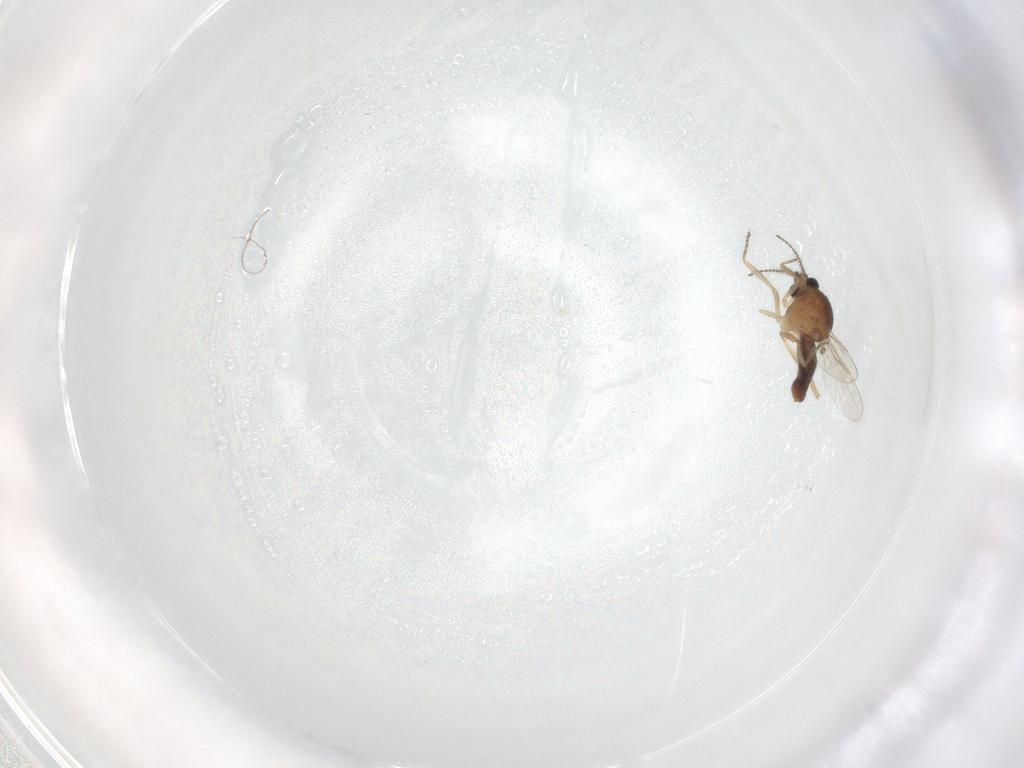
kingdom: Animalia
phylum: Arthropoda
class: Insecta
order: Diptera
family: Ceratopogonidae
